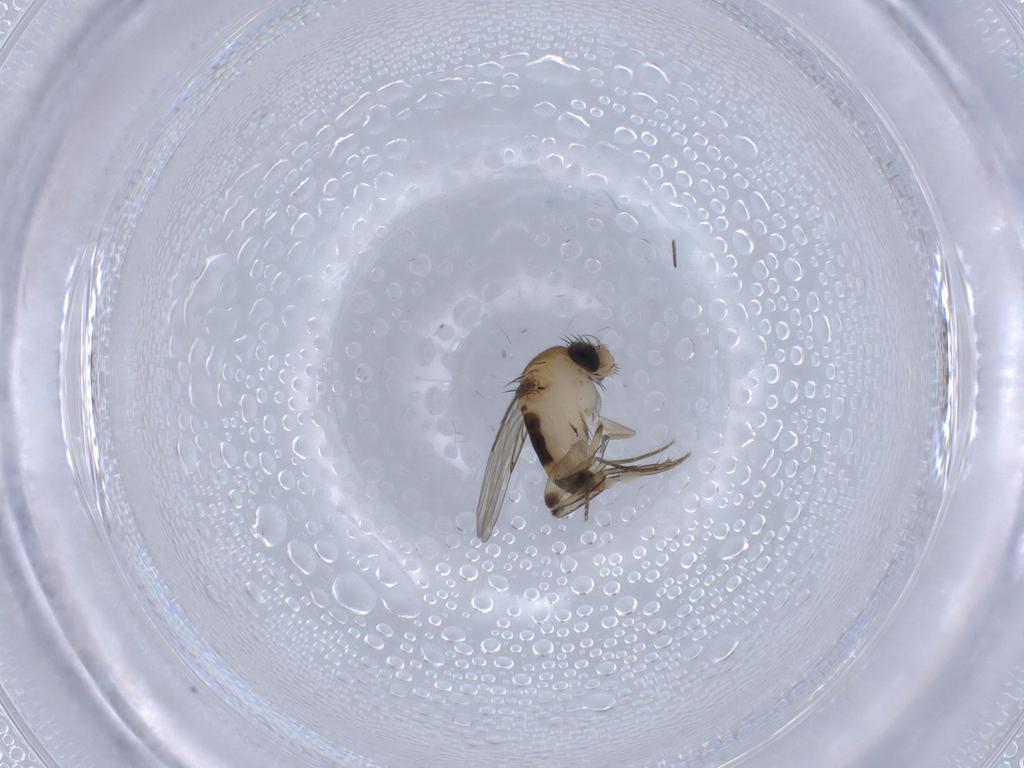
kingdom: Animalia
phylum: Arthropoda
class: Insecta
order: Diptera
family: Phoridae
